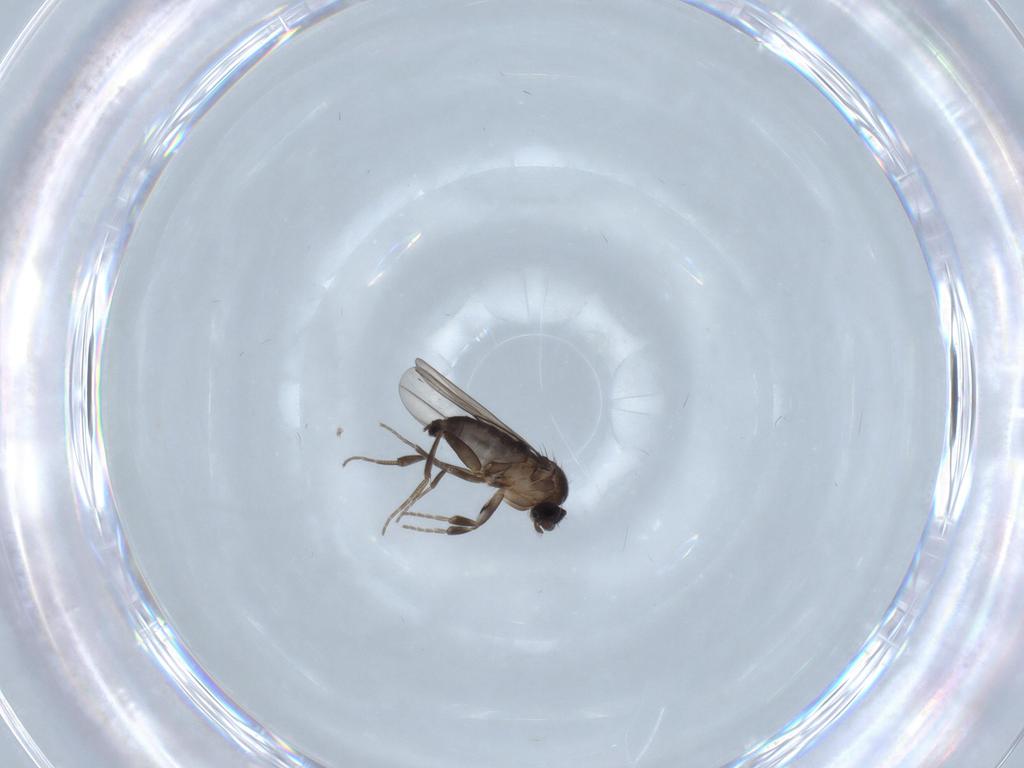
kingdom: Animalia
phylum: Arthropoda
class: Insecta
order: Diptera
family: Phoridae
